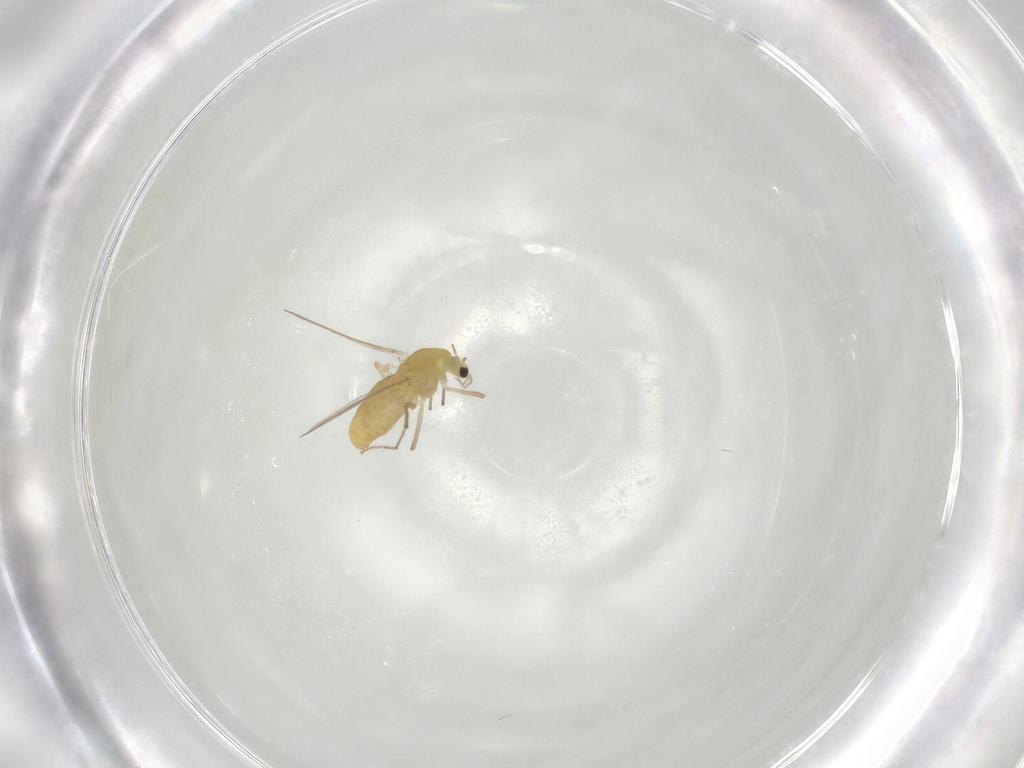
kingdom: Animalia
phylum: Arthropoda
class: Insecta
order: Diptera
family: Chironomidae
